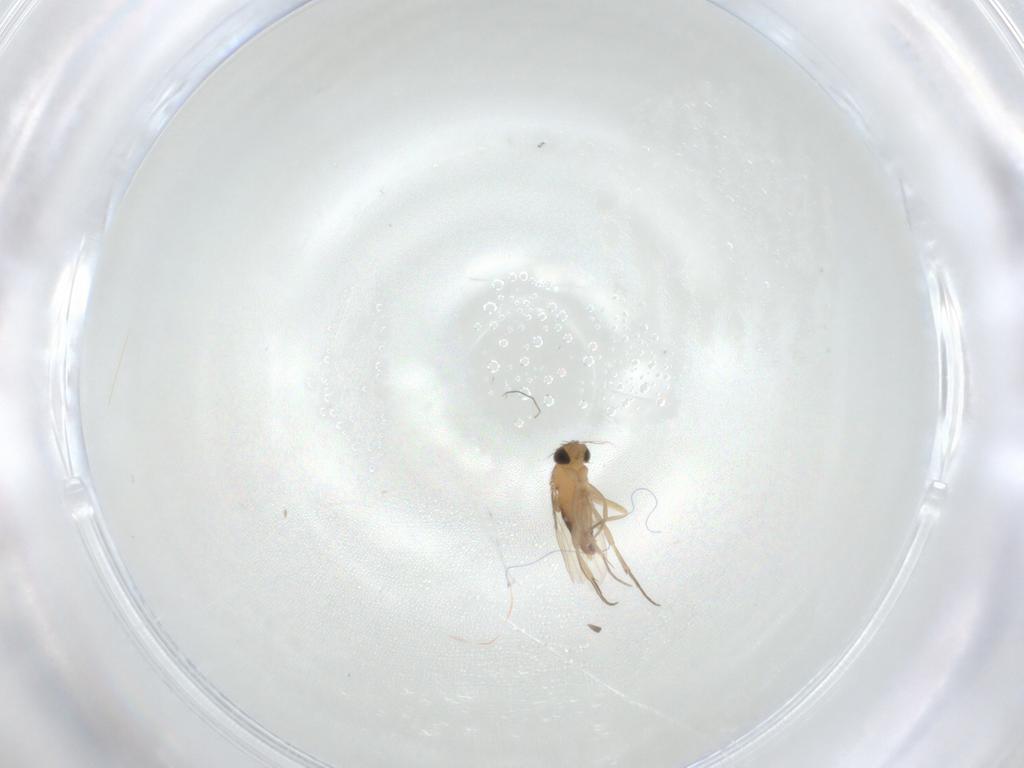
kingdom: Animalia
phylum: Arthropoda
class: Insecta
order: Diptera
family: Phoridae
